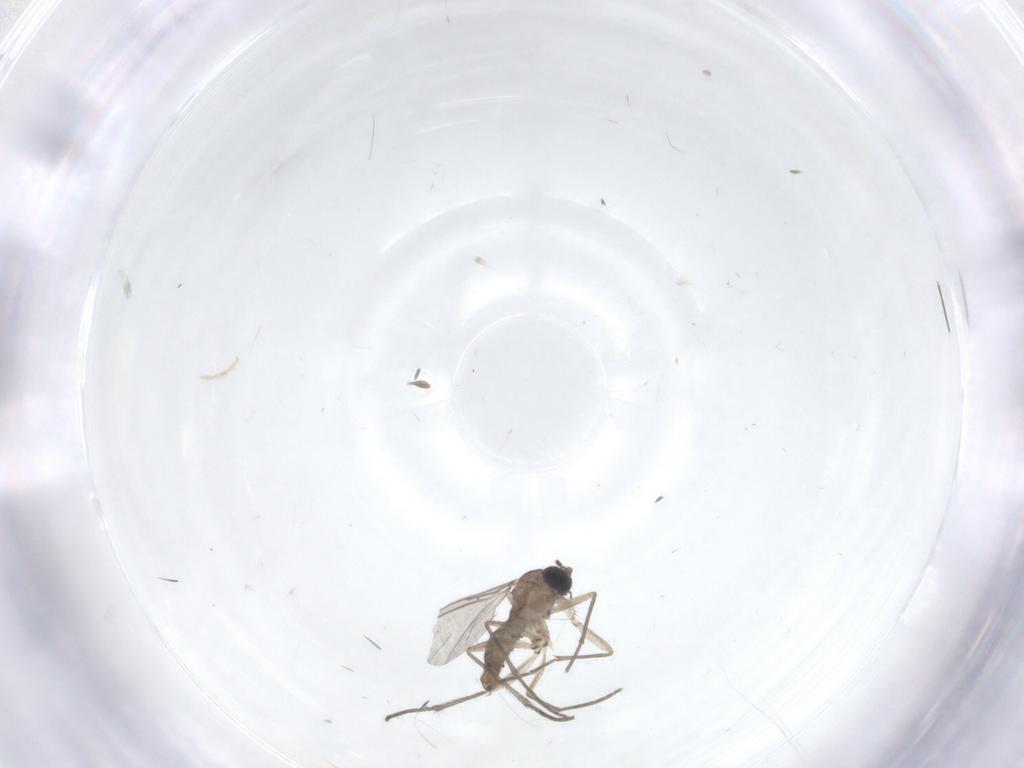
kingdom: Animalia
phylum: Arthropoda
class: Insecta
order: Diptera
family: Sciaridae
